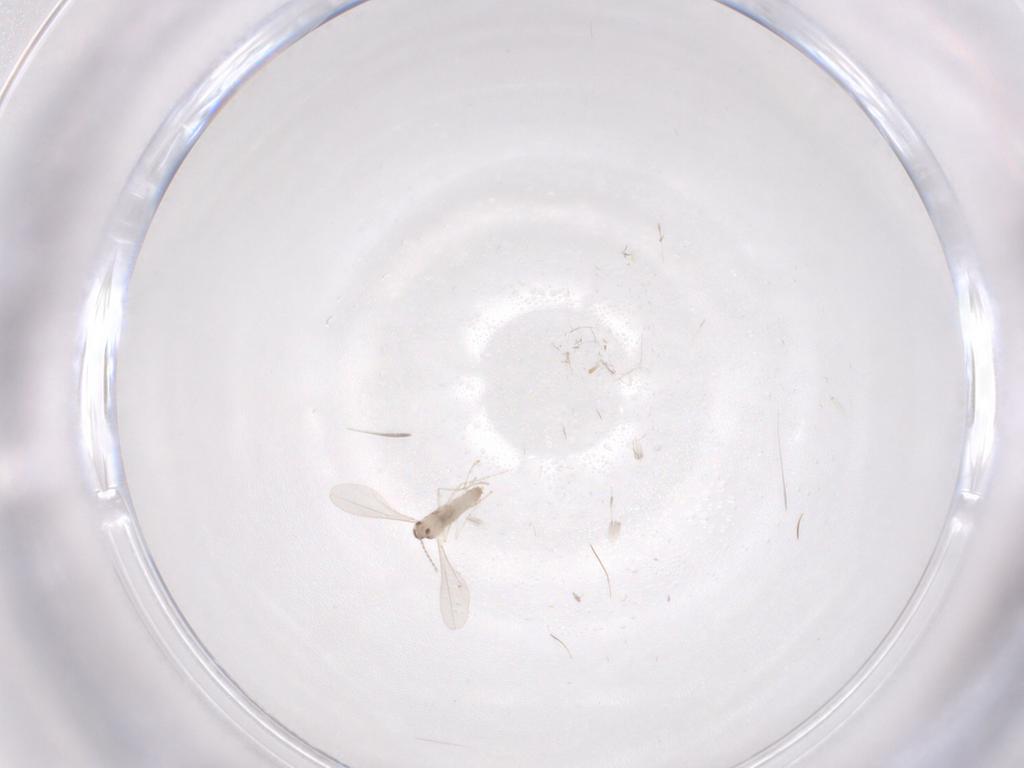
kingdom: Animalia
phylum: Arthropoda
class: Insecta
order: Diptera
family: Cecidomyiidae
